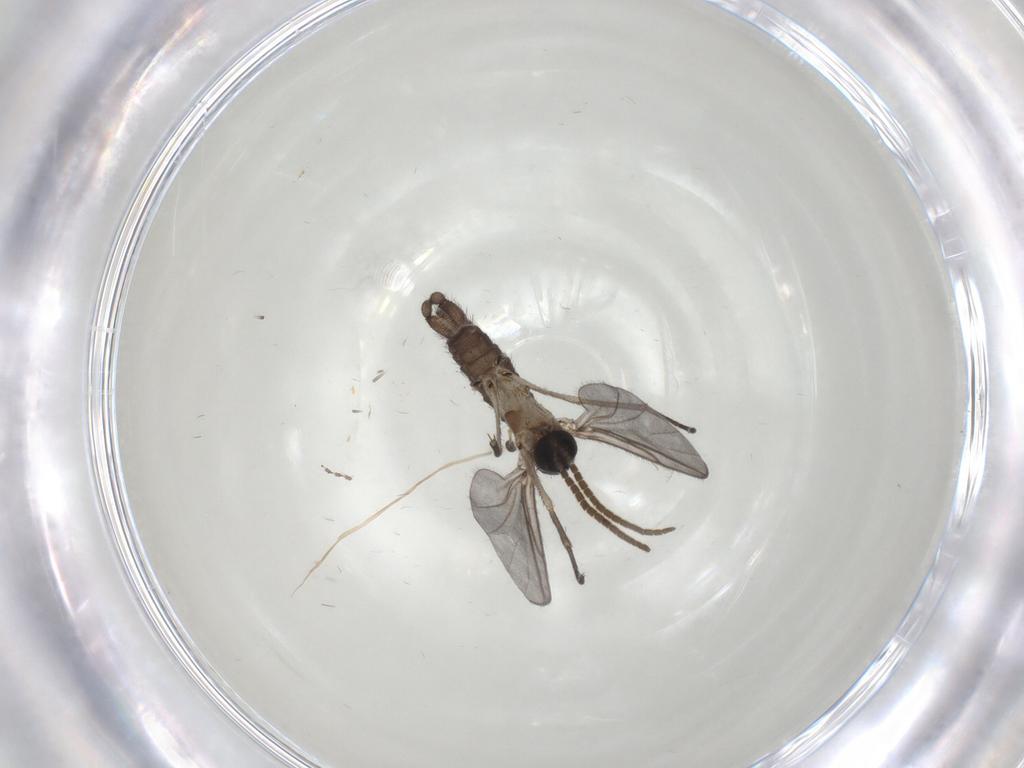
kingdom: Animalia
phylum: Arthropoda
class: Insecta
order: Diptera
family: Cecidomyiidae
